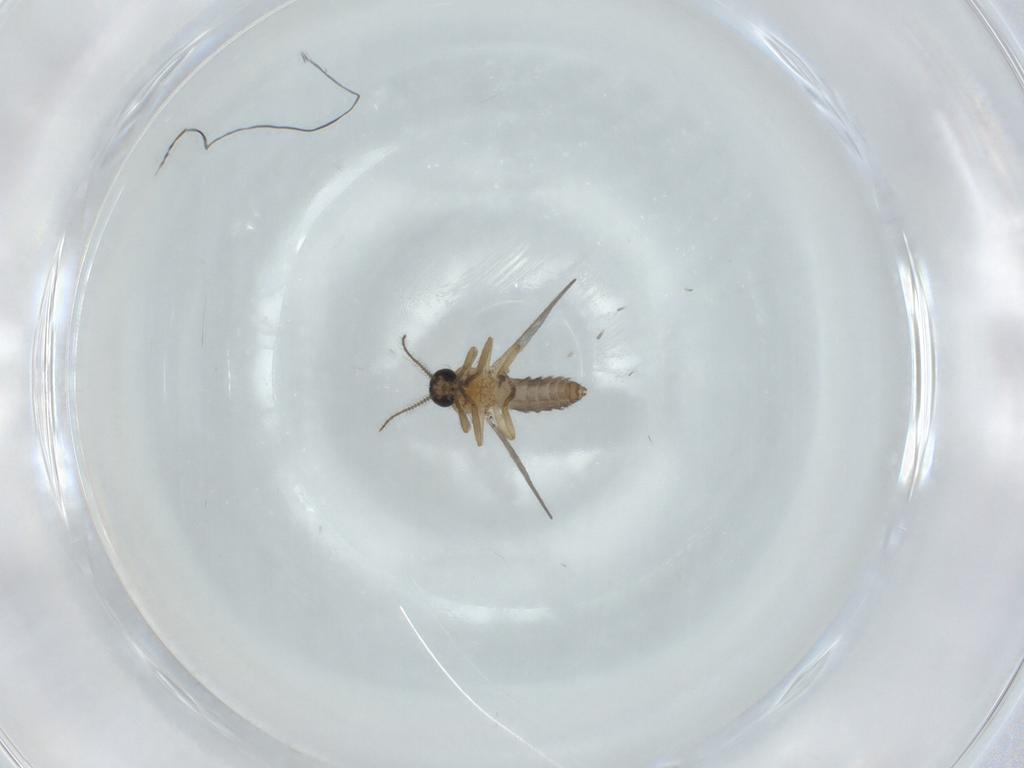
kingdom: Animalia
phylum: Arthropoda
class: Insecta
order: Diptera
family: Ceratopogonidae
